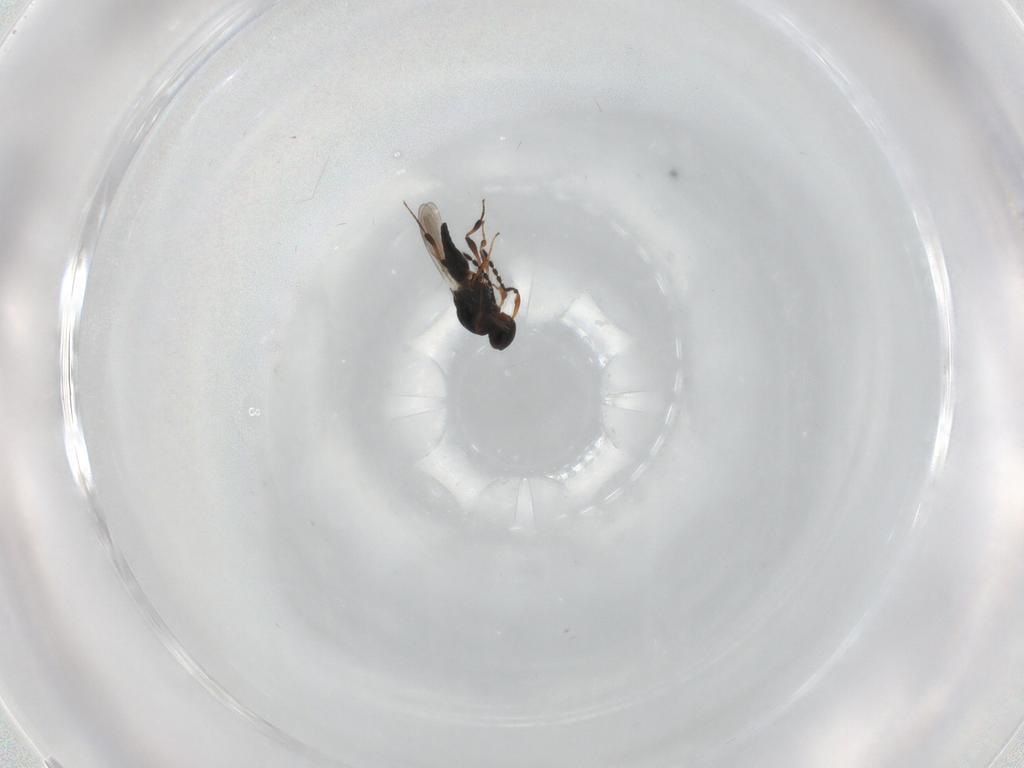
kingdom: Animalia
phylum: Arthropoda
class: Insecta
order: Hymenoptera
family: Platygastridae
